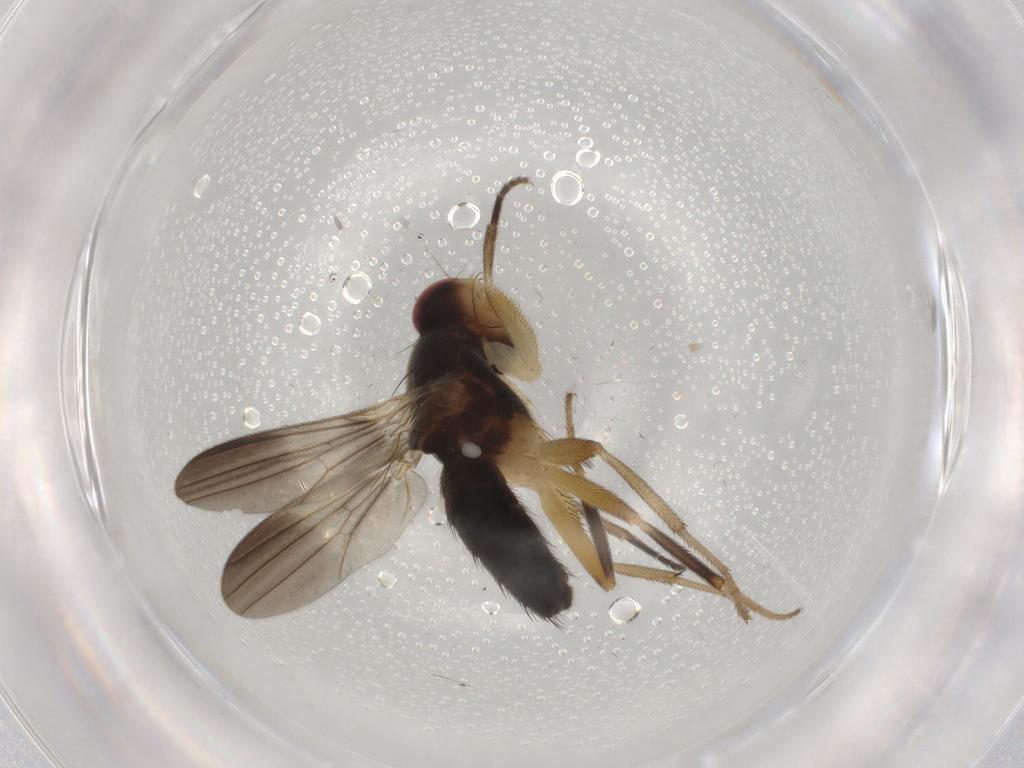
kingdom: Animalia
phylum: Arthropoda
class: Insecta
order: Diptera
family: Clusiidae
